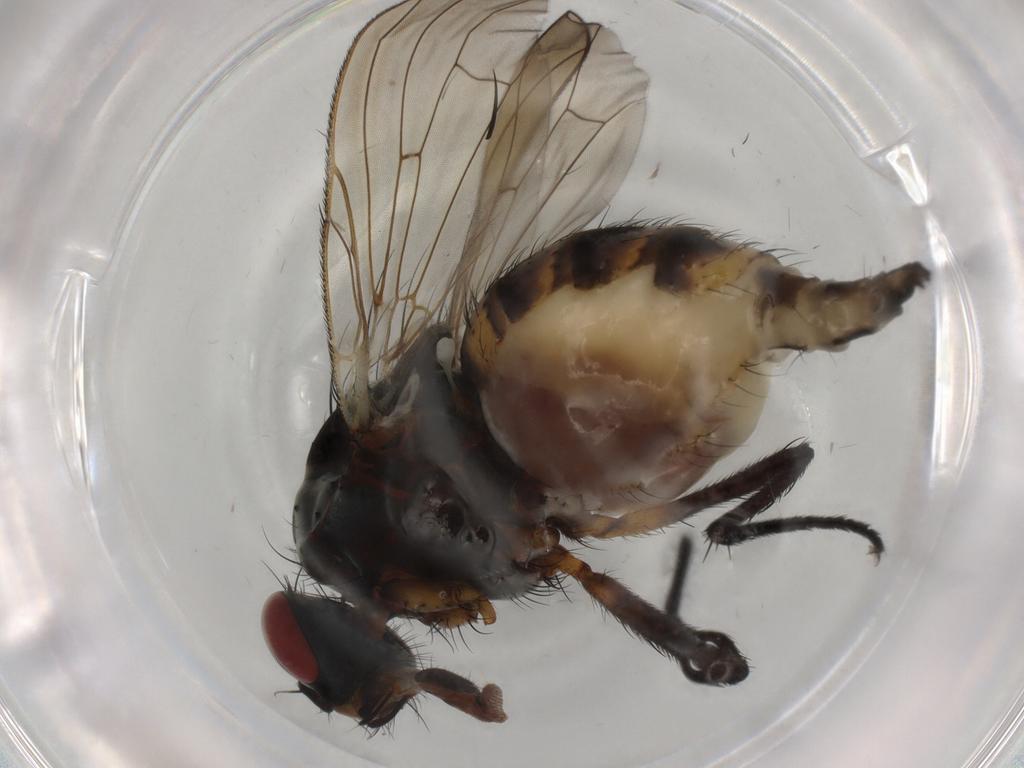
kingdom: Animalia
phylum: Arthropoda
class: Insecta
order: Diptera
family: Chironomidae
